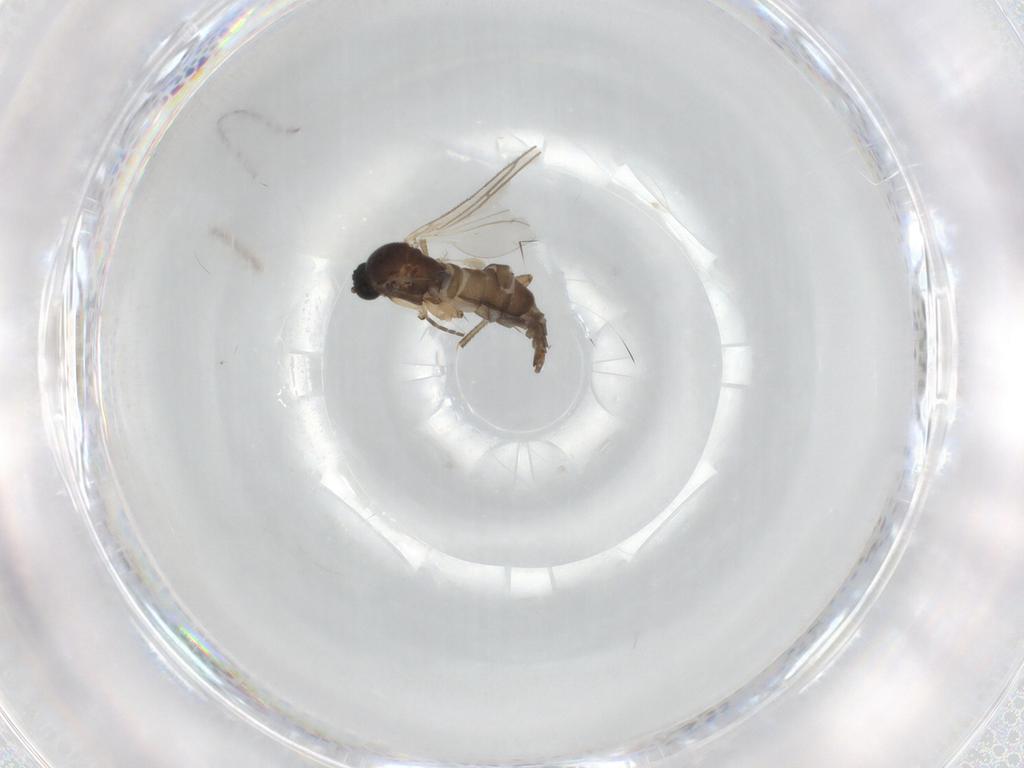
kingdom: Animalia
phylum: Arthropoda
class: Insecta
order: Diptera
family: Sciaridae
